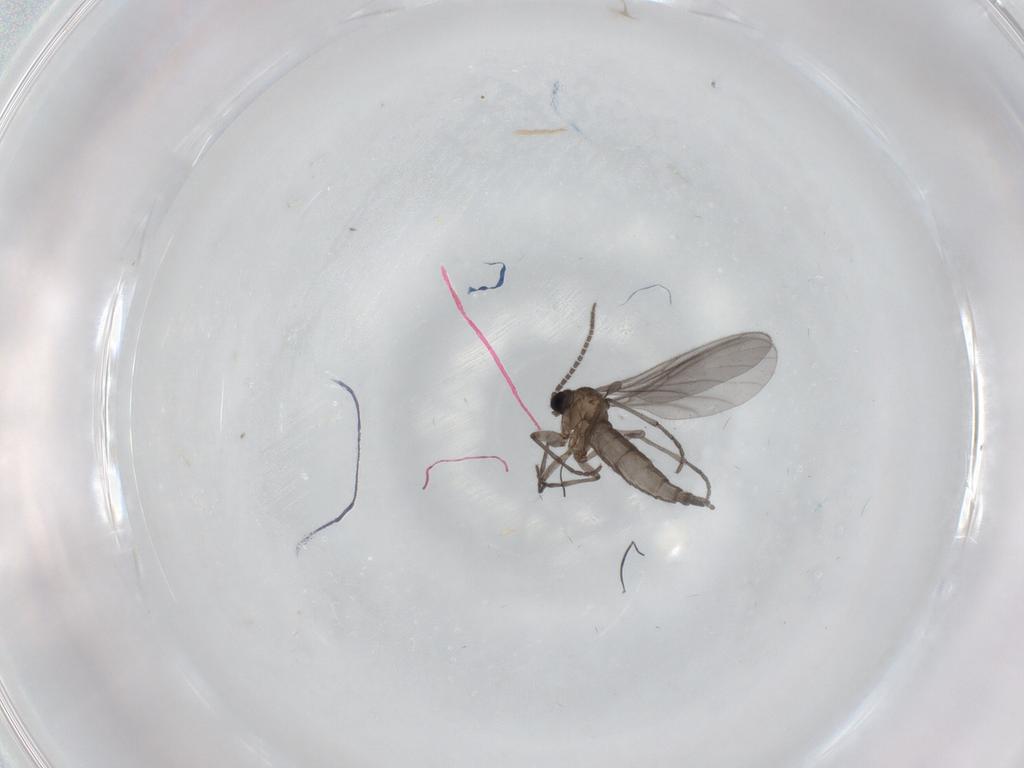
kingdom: Animalia
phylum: Arthropoda
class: Insecta
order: Diptera
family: Sciaridae
